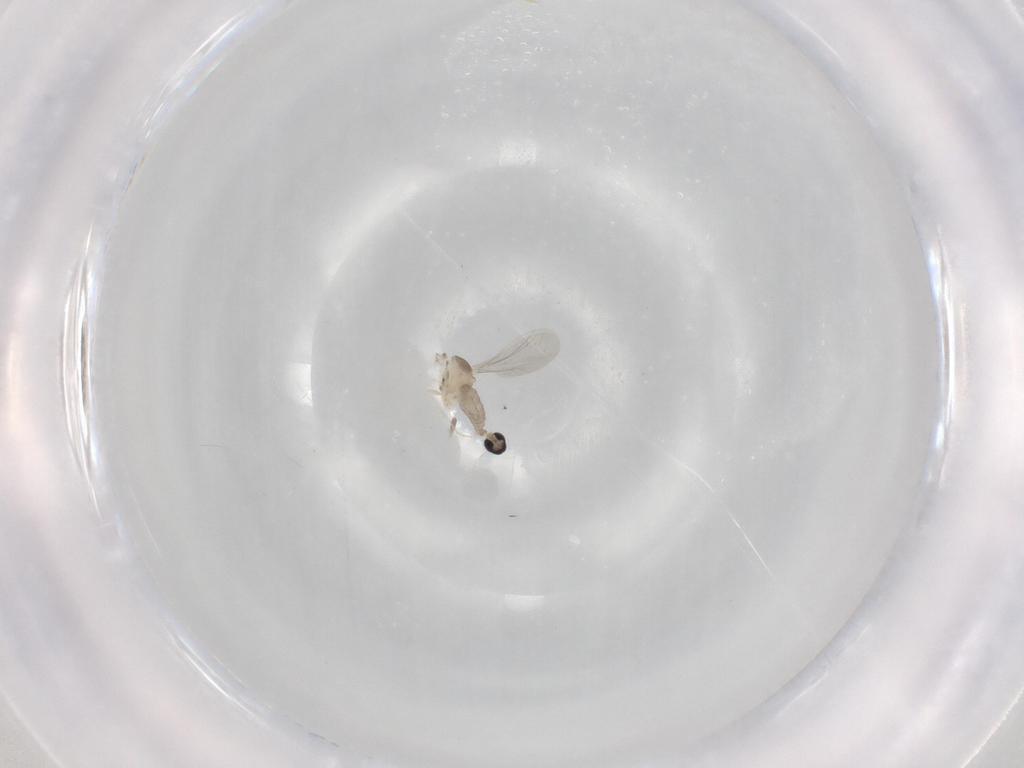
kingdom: Animalia
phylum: Arthropoda
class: Insecta
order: Diptera
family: Cecidomyiidae
